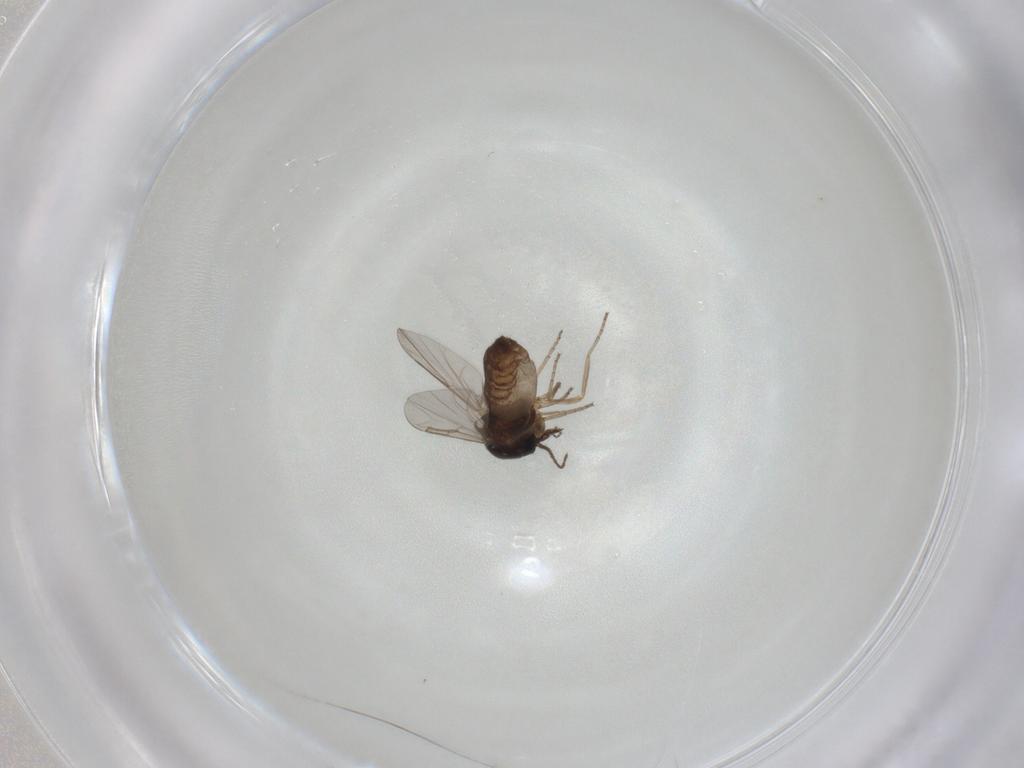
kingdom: Animalia
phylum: Arthropoda
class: Insecta
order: Diptera
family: Ceratopogonidae
